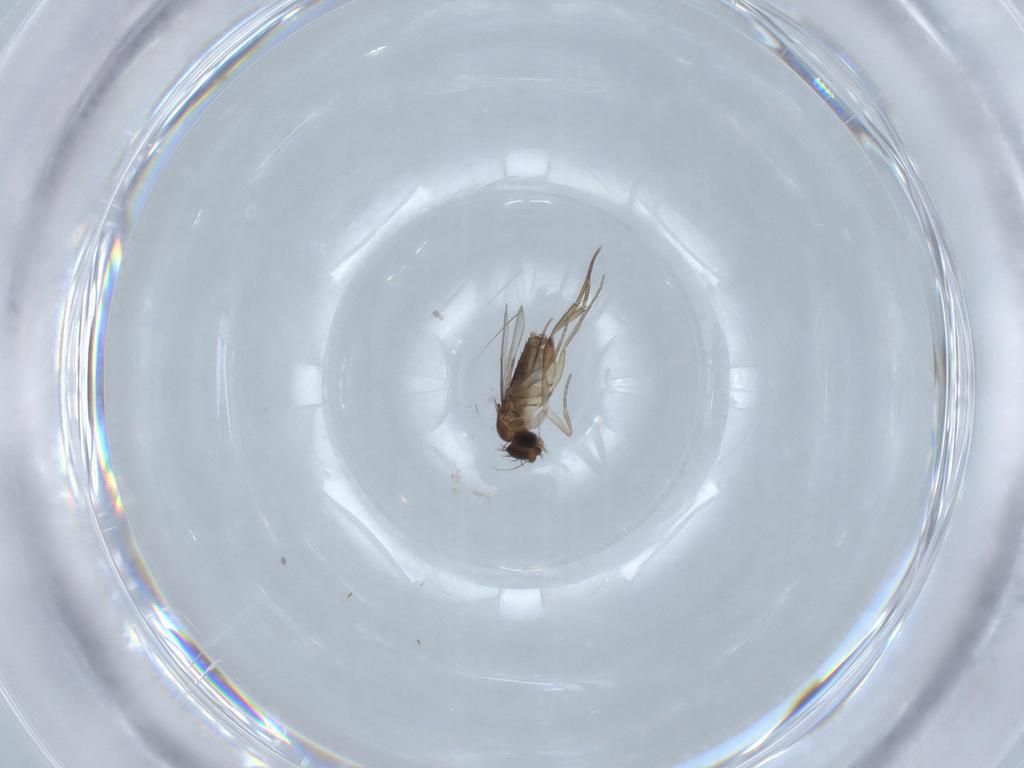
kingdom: Animalia
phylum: Arthropoda
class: Insecta
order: Diptera
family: Phoridae
